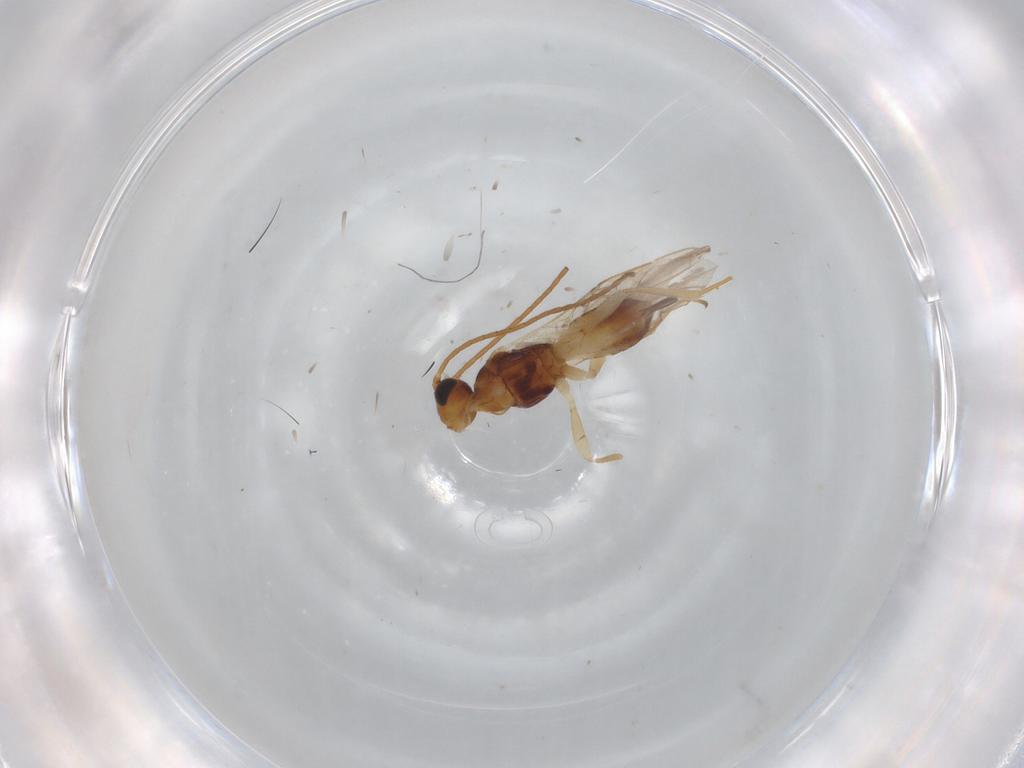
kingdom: Animalia
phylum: Arthropoda
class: Insecta
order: Hymenoptera
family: Braconidae
